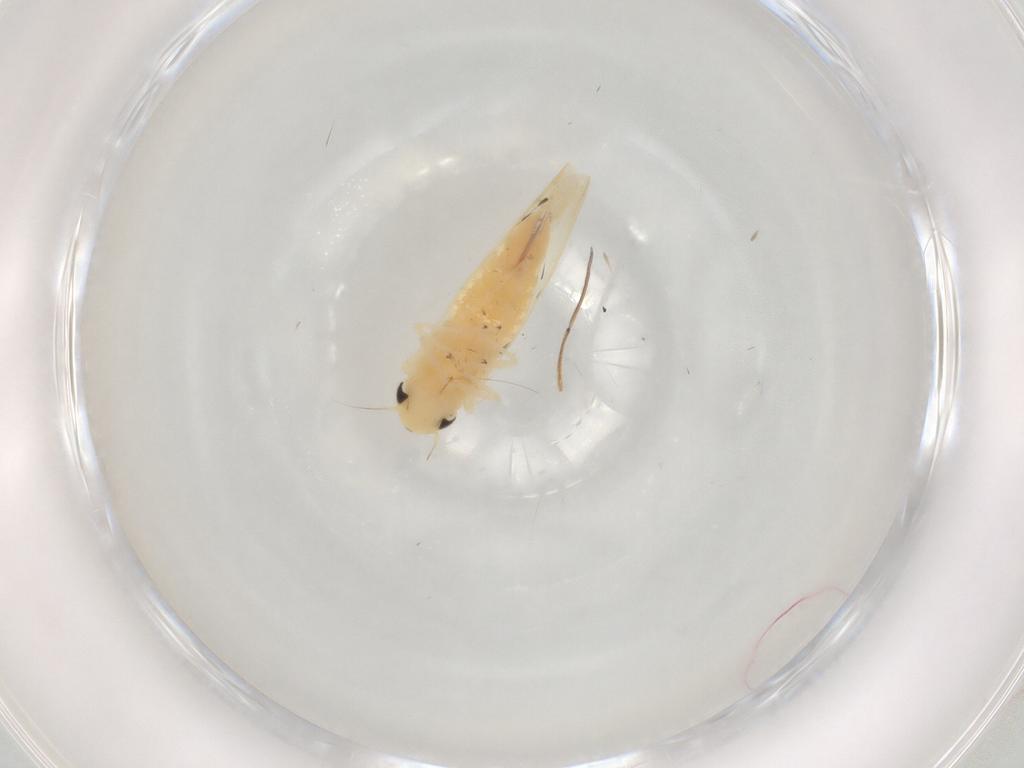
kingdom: Animalia
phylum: Arthropoda
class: Insecta
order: Hemiptera
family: Cicadellidae
